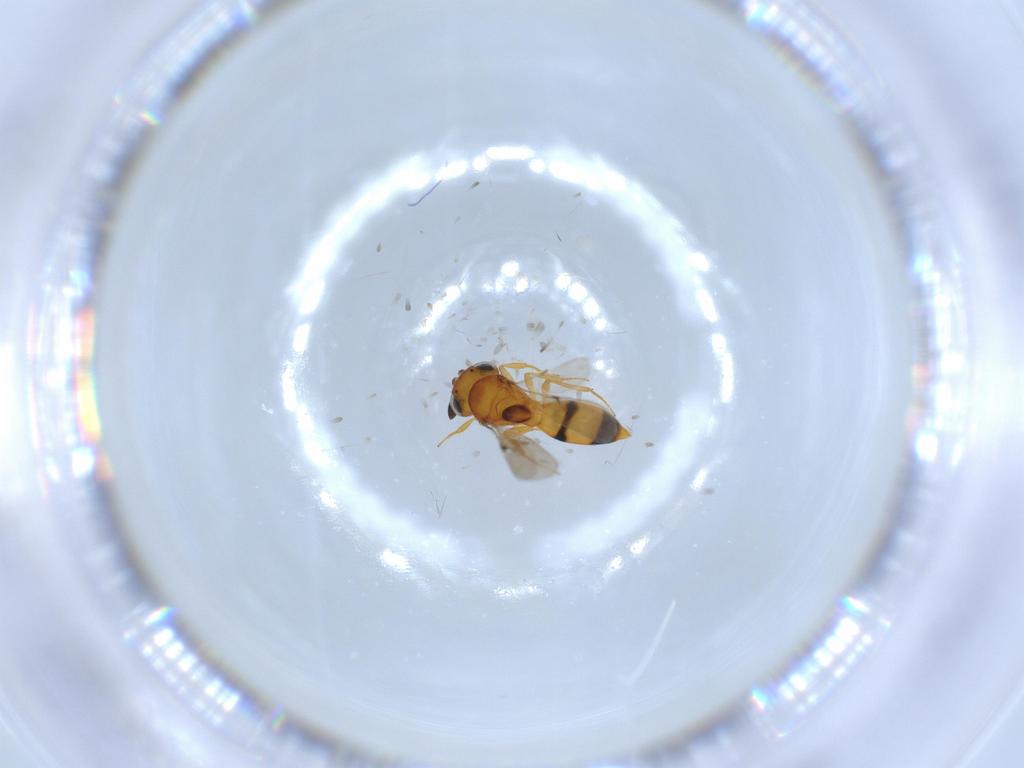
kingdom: Animalia
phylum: Arthropoda
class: Insecta
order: Hymenoptera
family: Scelionidae
